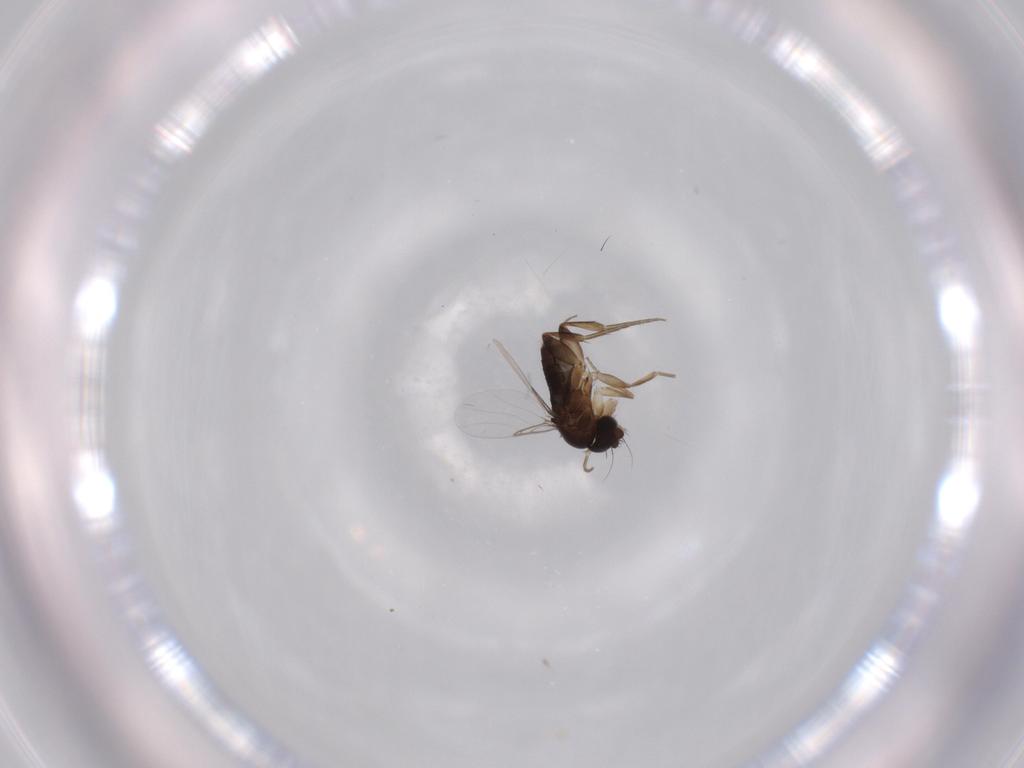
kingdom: Animalia
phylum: Arthropoda
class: Insecta
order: Diptera
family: Phoridae
